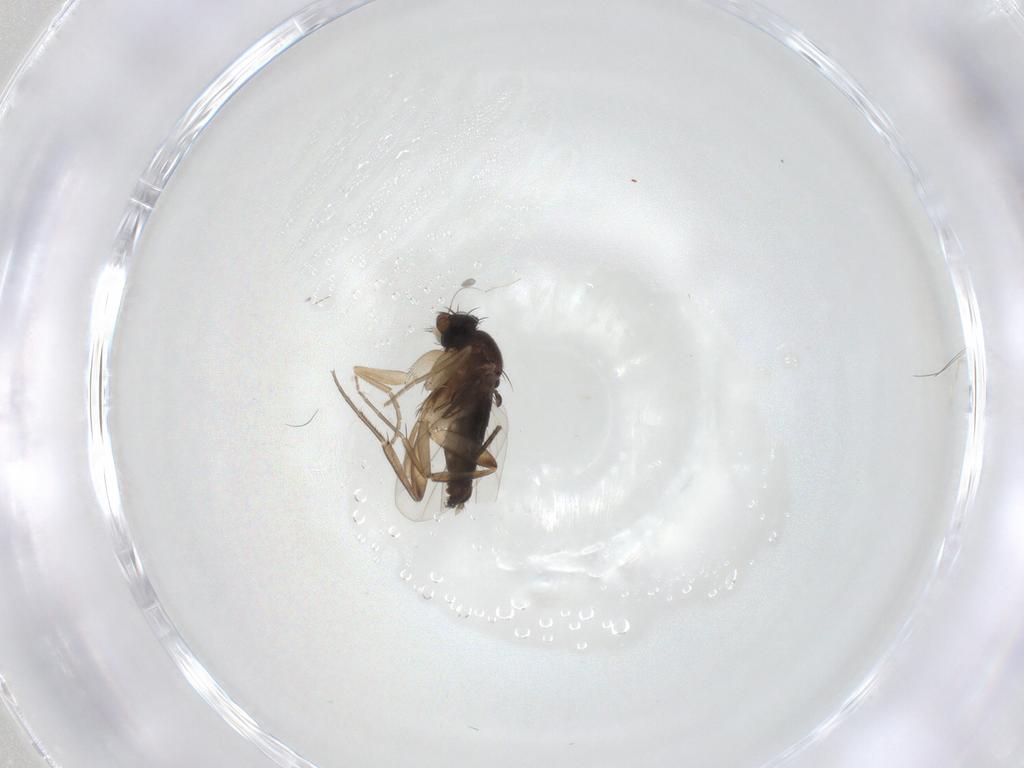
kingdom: Animalia
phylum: Arthropoda
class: Insecta
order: Diptera
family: Phoridae
